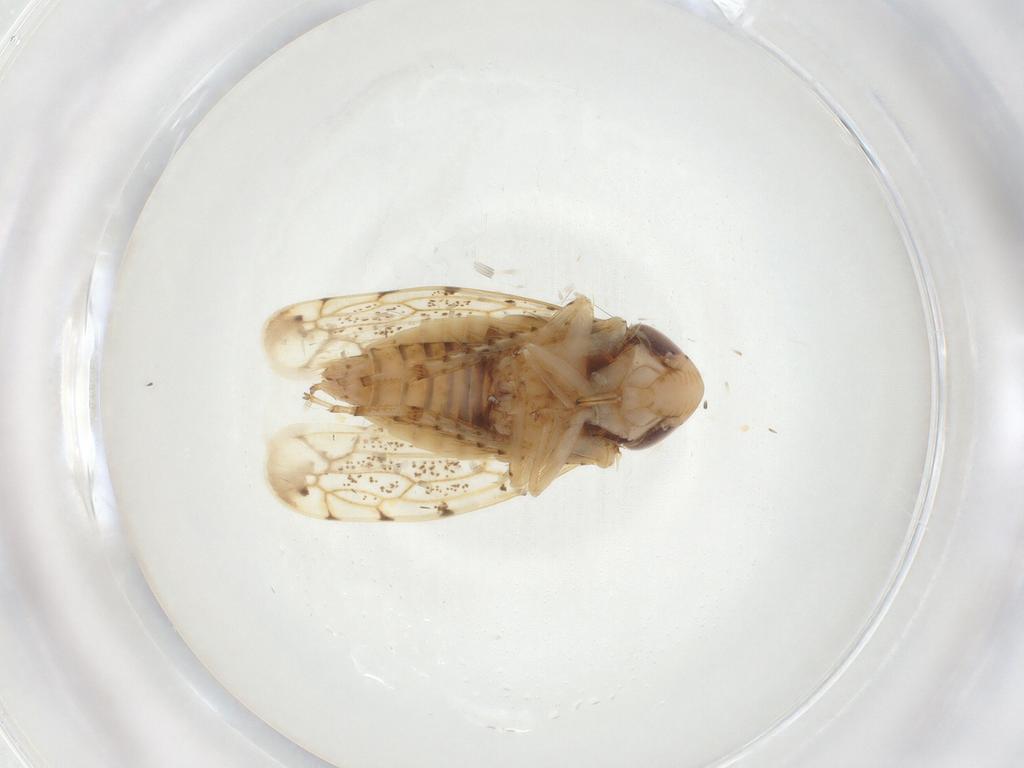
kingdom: Animalia
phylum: Arthropoda
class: Insecta
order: Hemiptera
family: Cicadellidae
